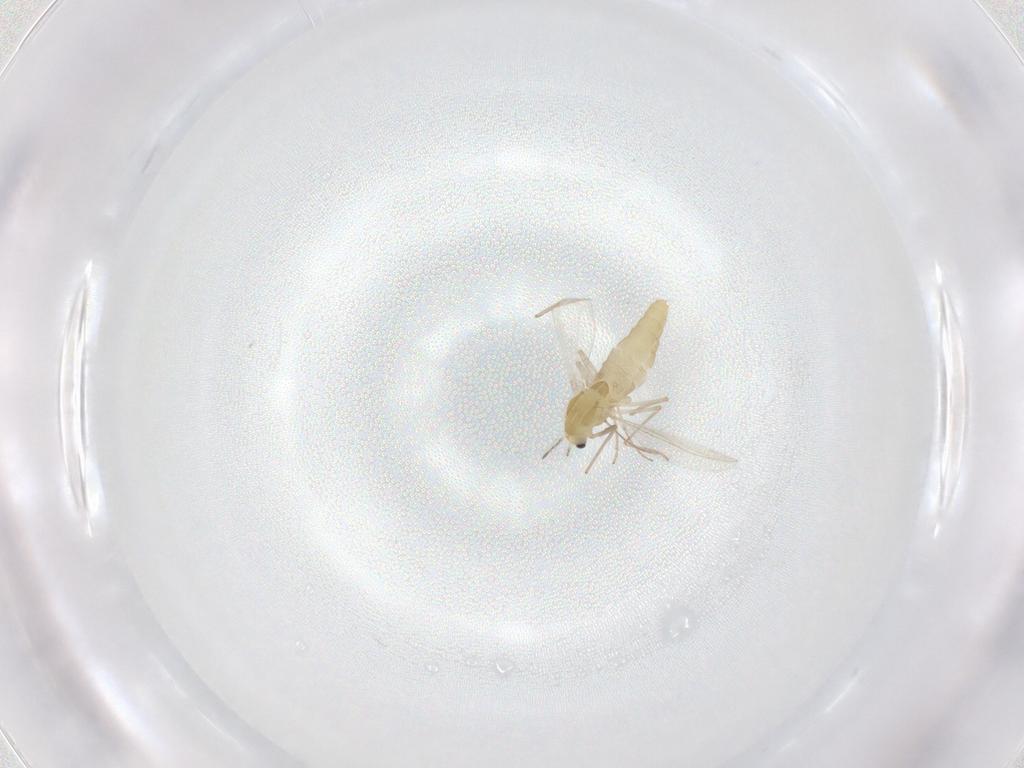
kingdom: Animalia
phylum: Arthropoda
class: Insecta
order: Diptera
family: Chironomidae
